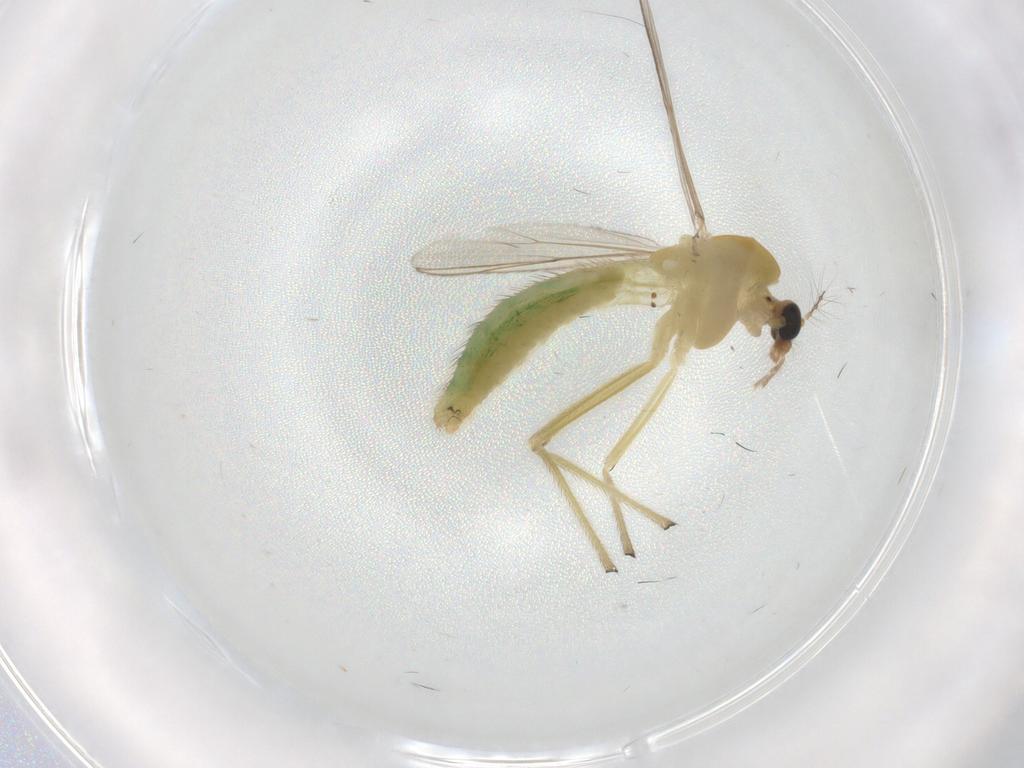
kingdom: Animalia
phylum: Arthropoda
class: Insecta
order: Diptera
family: Chironomidae
